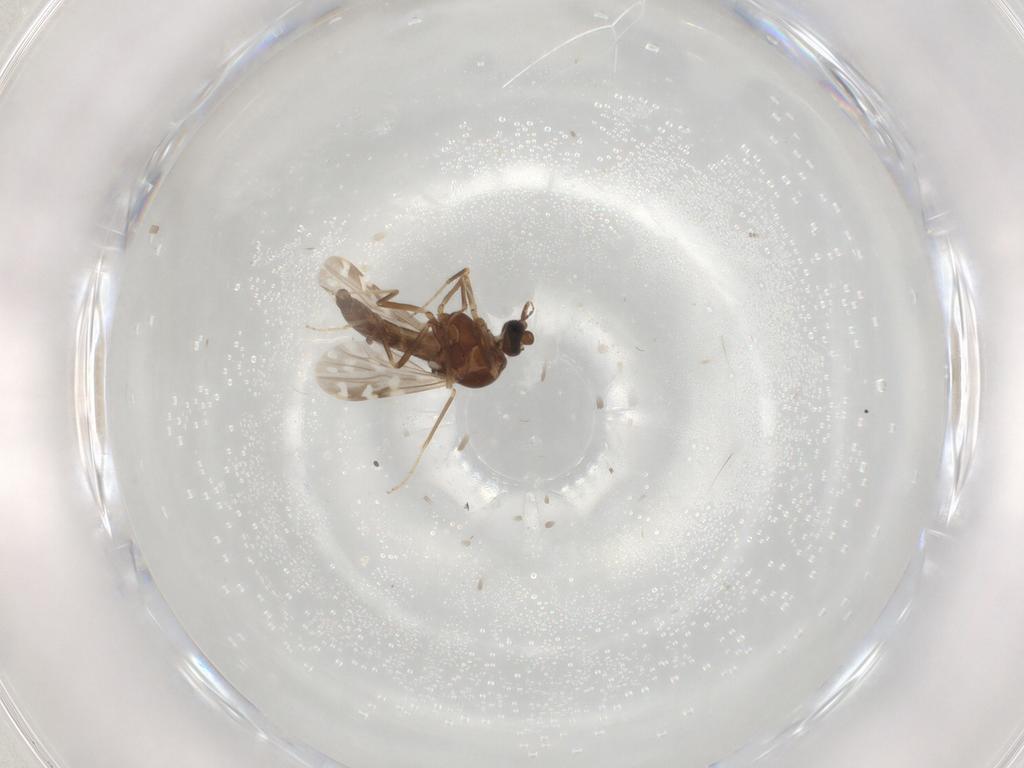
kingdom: Animalia
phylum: Arthropoda
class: Insecta
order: Diptera
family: Ceratopogonidae
